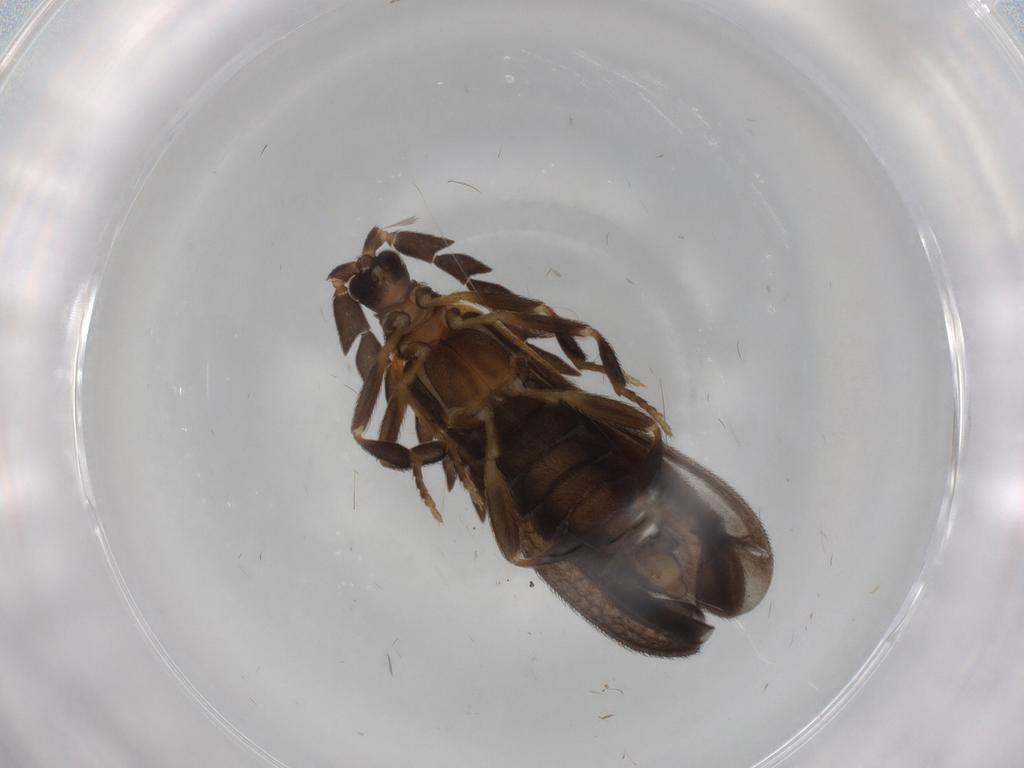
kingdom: Animalia
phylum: Arthropoda
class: Insecta
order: Coleoptera
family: Lycidae
